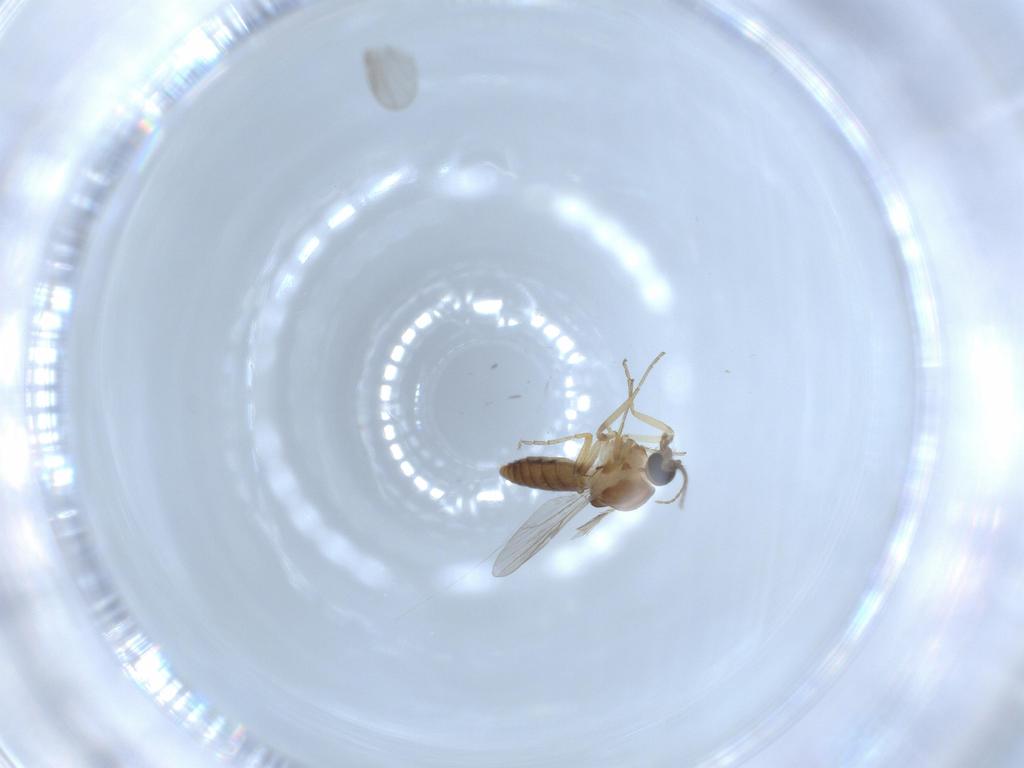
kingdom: Animalia
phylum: Arthropoda
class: Insecta
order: Diptera
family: Ceratopogonidae
